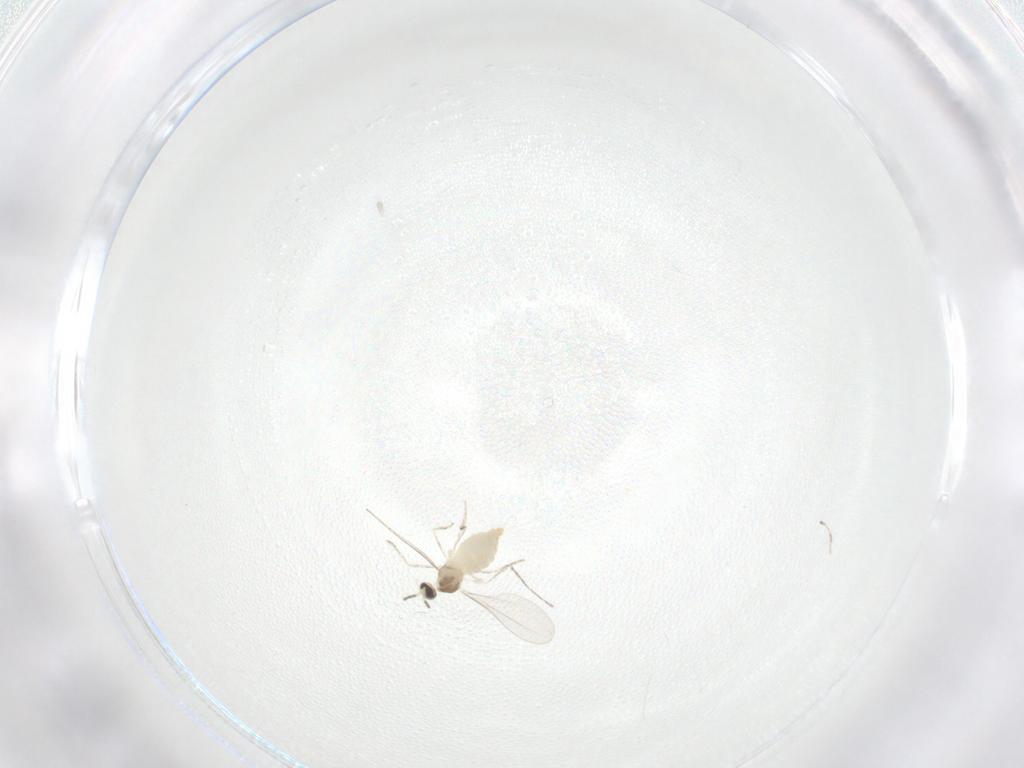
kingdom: Animalia
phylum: Arthropoda
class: Insecta
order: Diptera
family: Cecidomyiidae
